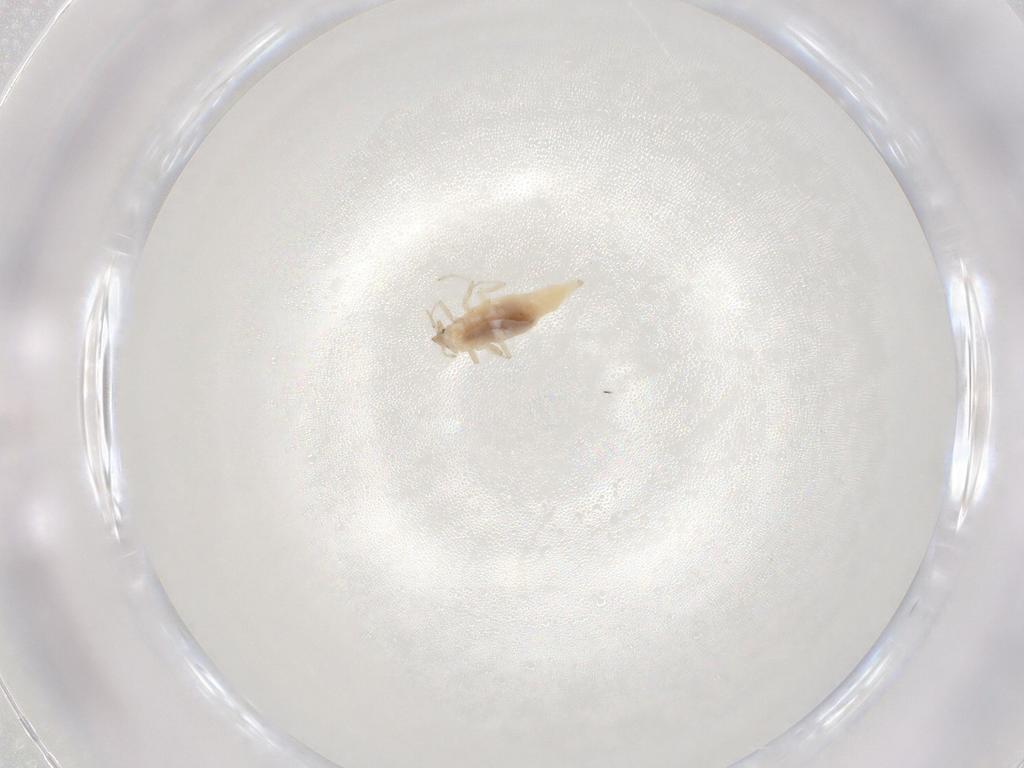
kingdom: Animalia
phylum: Arthropoda
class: Insecta
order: Neuroptera
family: Coniopterygidae
